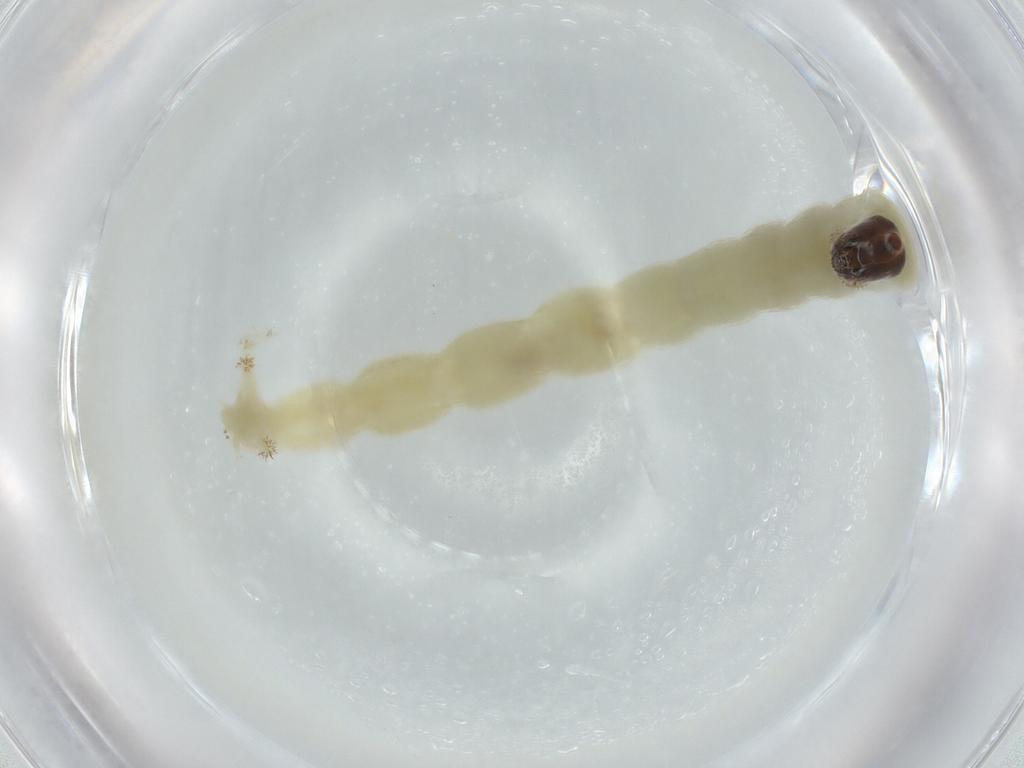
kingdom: Animalia
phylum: Arthropoda
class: Insecta
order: Diptera
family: Chironomidae
